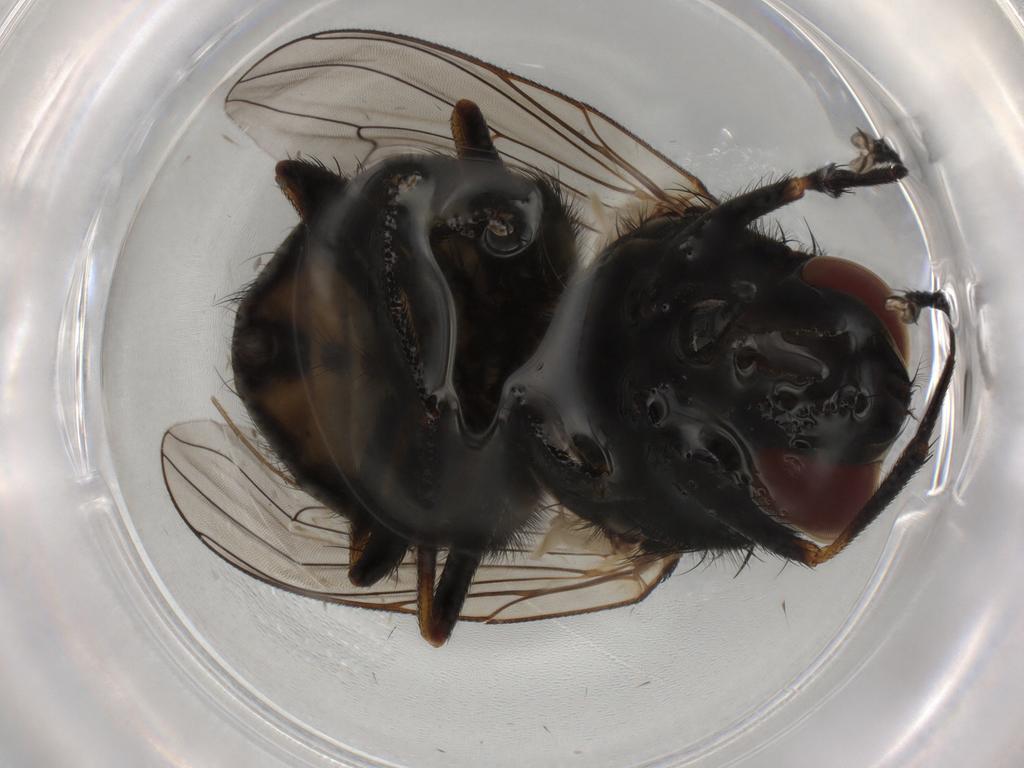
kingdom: Animalia
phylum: Arthropoda
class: Insecta
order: Diptera
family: Muscidae
